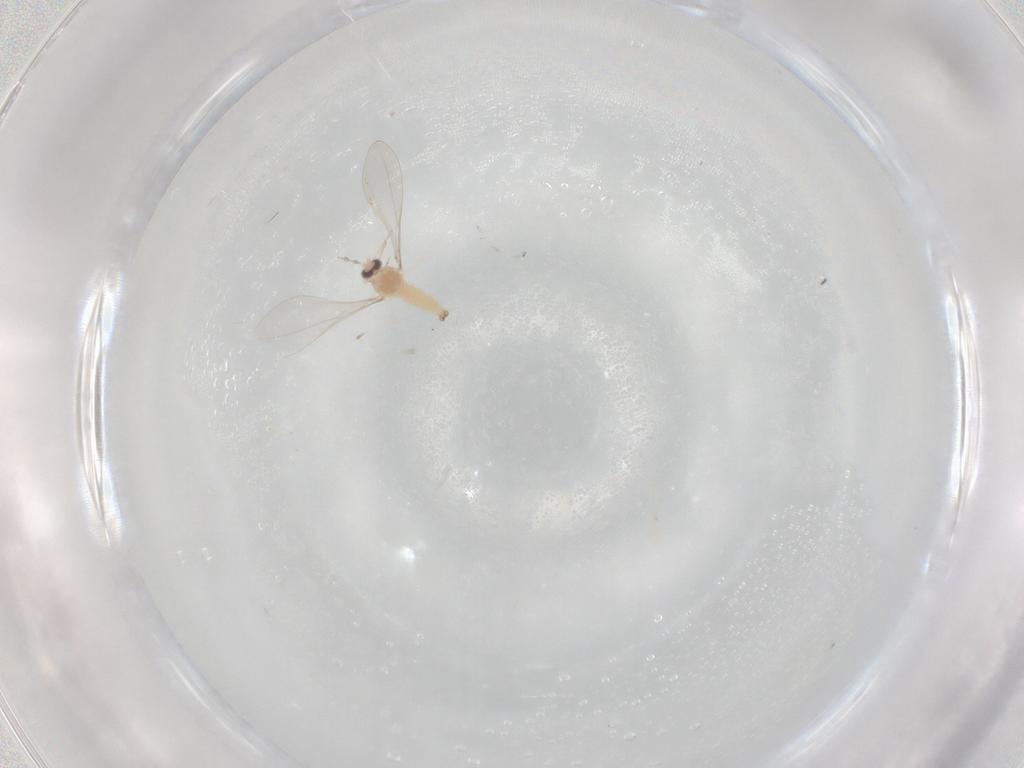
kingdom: Animalia
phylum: Arthropoda
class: Insecta
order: Diptera
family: Cecidomyiidae
